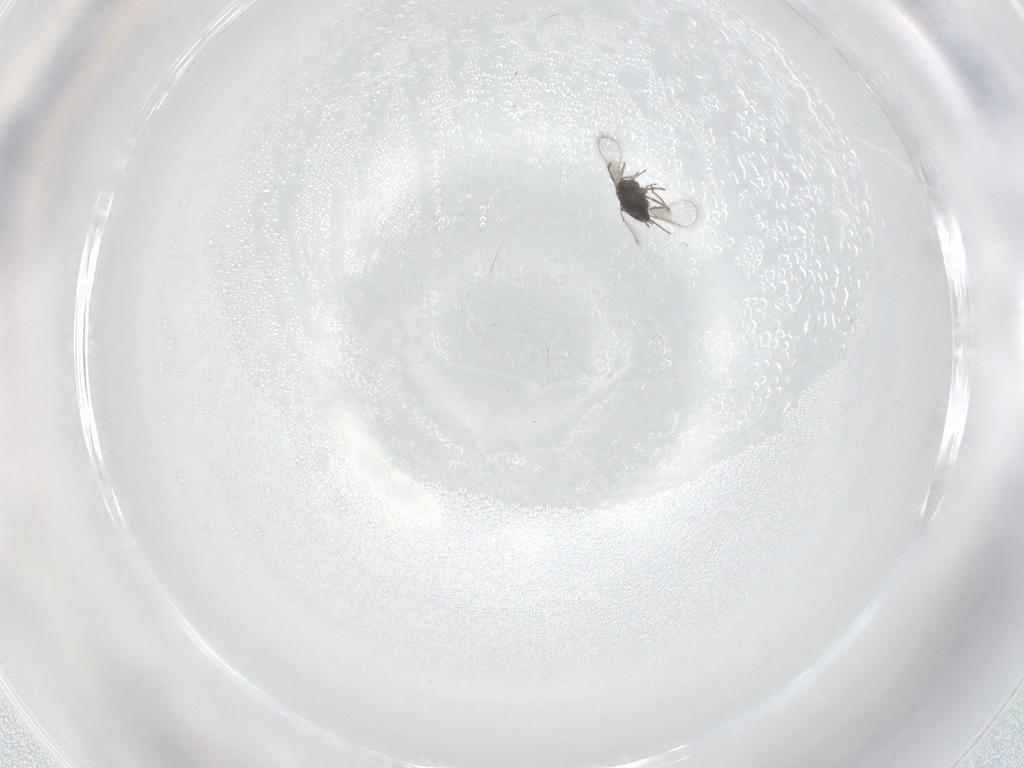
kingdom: Animalia
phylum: Arthropoda
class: Insecta
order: Hymenoptera
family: Trichogrammatidae
